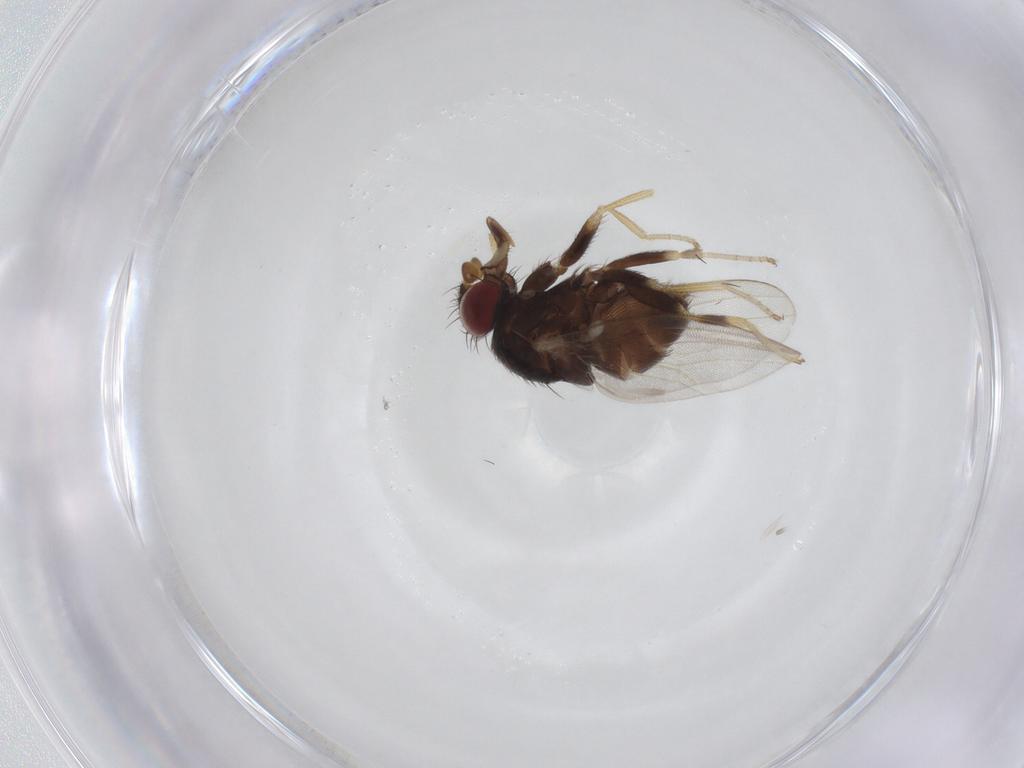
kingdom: Animalia
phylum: Arthropoda
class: Insecta
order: Diptera
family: Milichiidae
